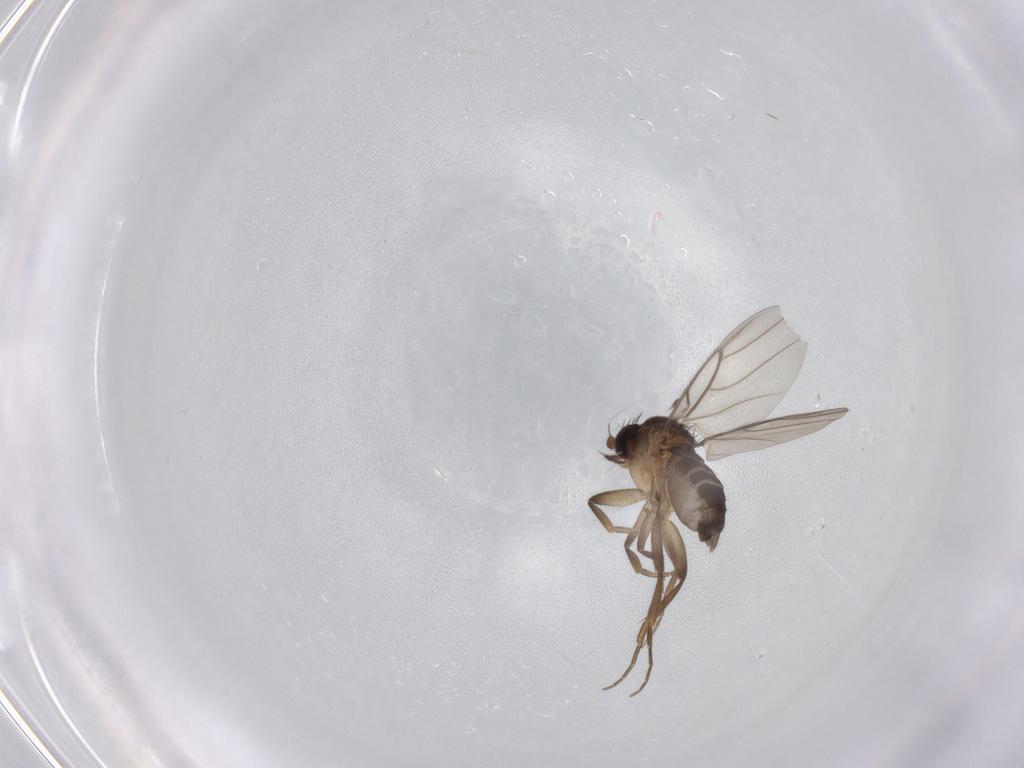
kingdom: Animalia
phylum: Arthropoda
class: Insecta
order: Diptera
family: Phoridae
